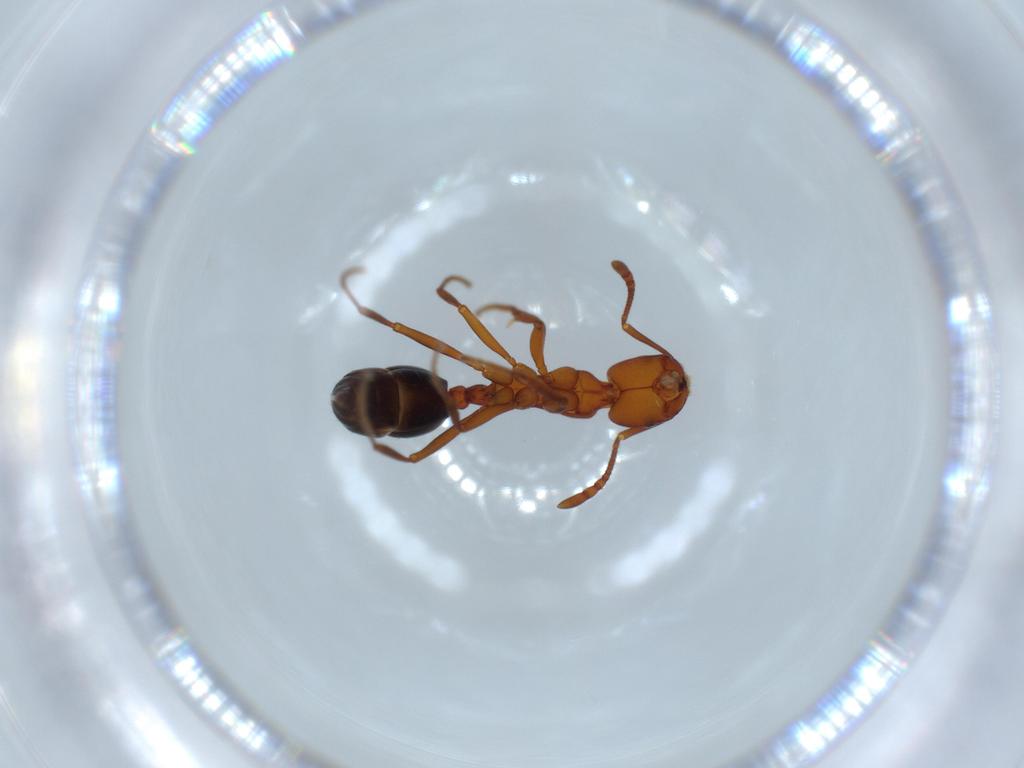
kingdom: Animalia
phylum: Arthropoda
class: Insecta
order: Hymenoptera
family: Formicidae
